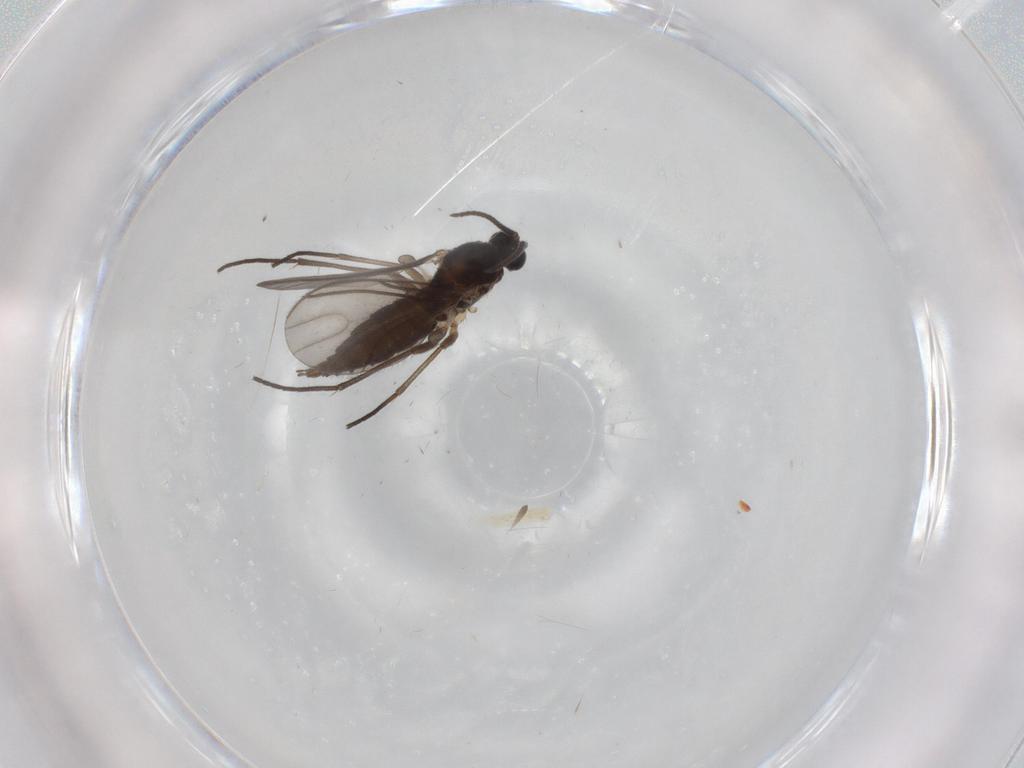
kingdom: Animalia
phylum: Arthropoda
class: Insecta
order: Diptera
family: Sciaridae
